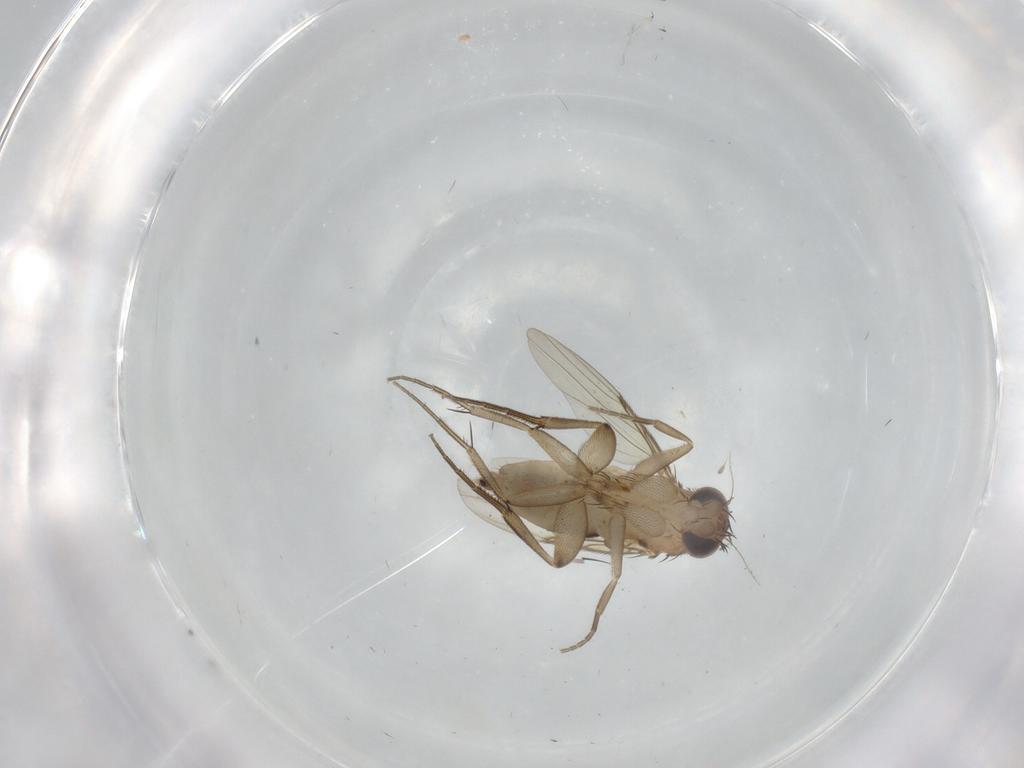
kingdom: Animalia
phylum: Arthropoda
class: Insecta
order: Diptera
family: Phoridae
